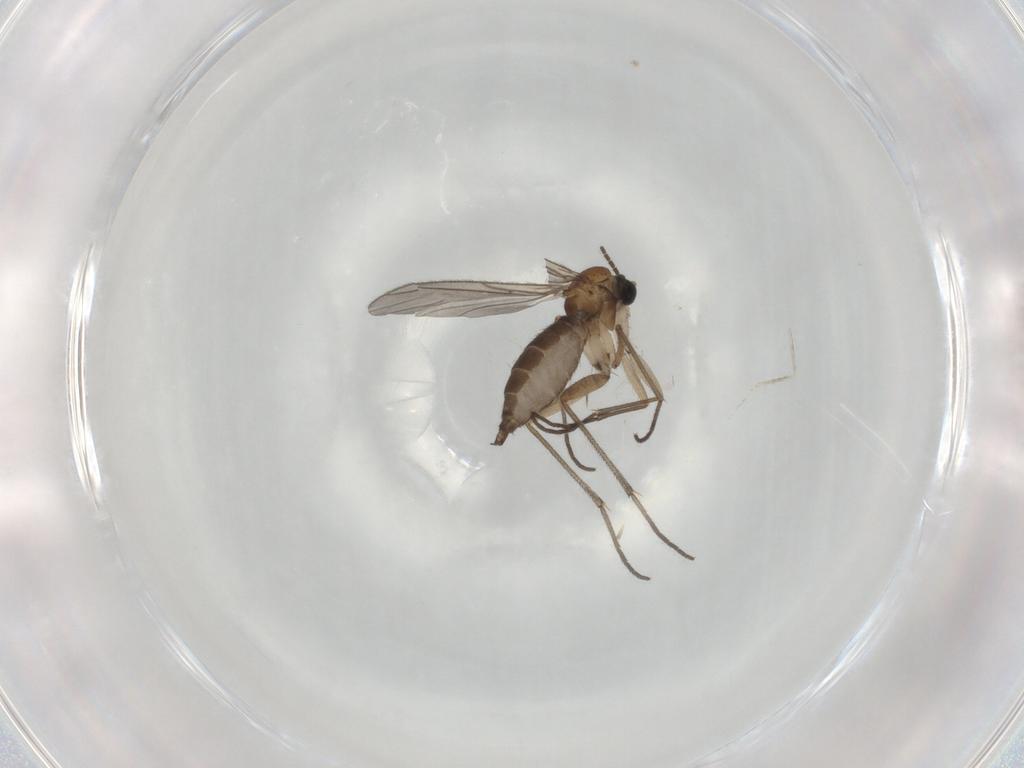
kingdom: Animalia
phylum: Arthropoda
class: Insecta
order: Diptera
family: Sciaridae
